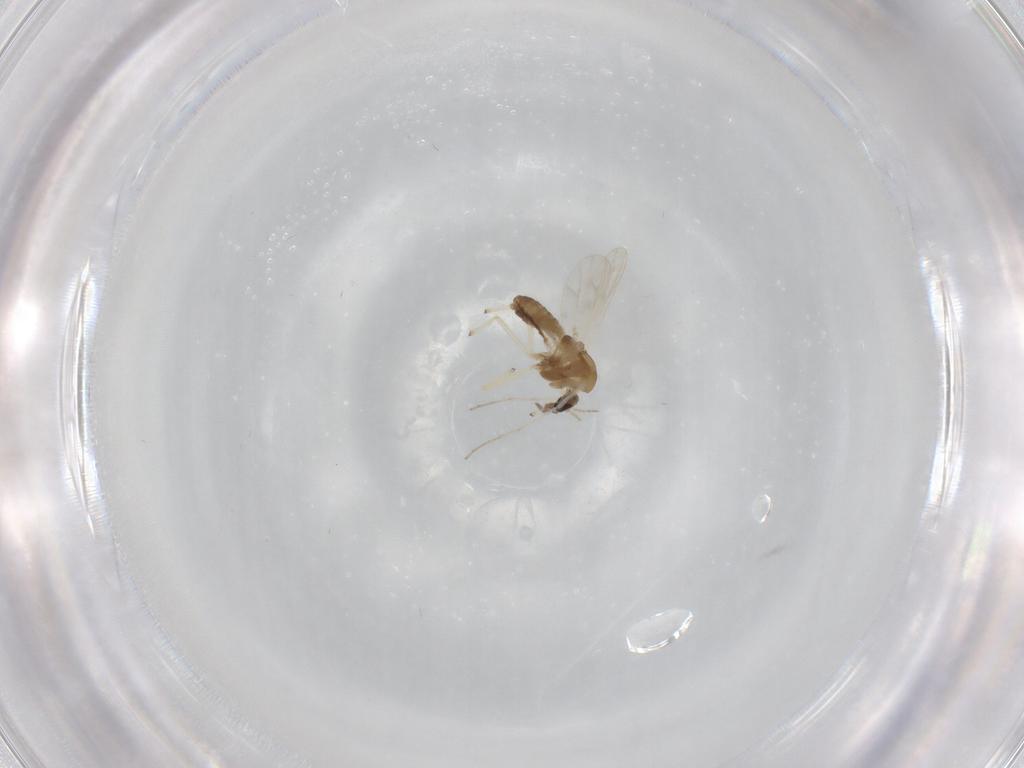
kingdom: Animalia
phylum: Arthropoda
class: Insecta
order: Diptera
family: Chironomidae
